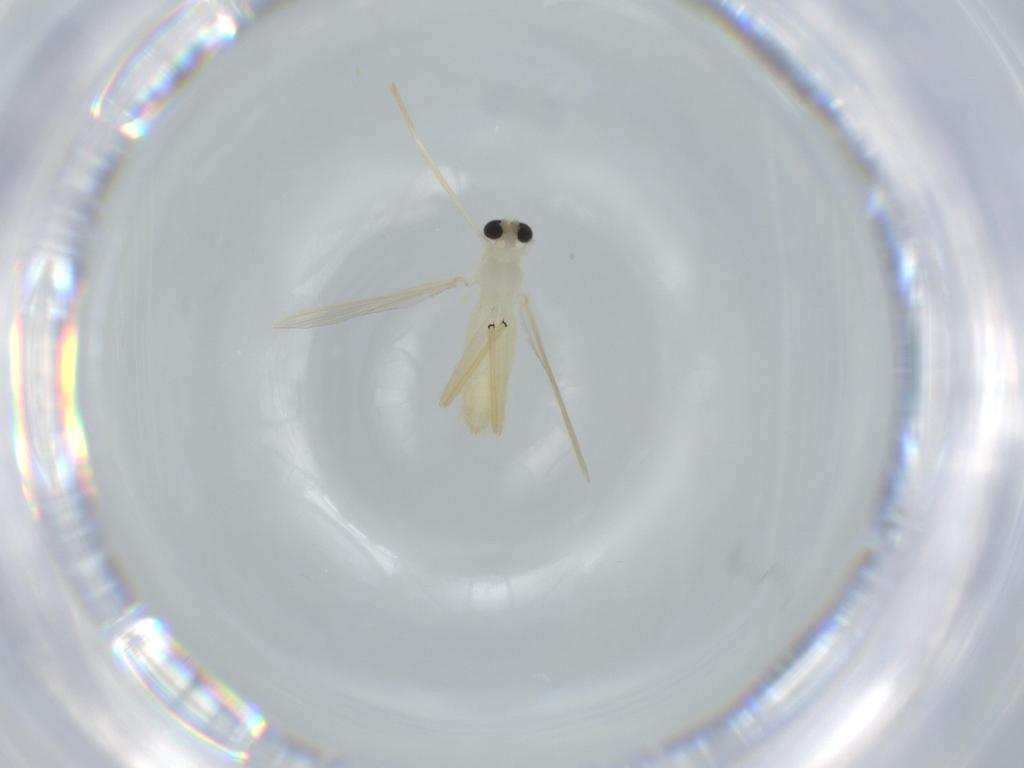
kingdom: Animalia
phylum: Arthropoda
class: Insecta
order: Diptera
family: Chironomidae
